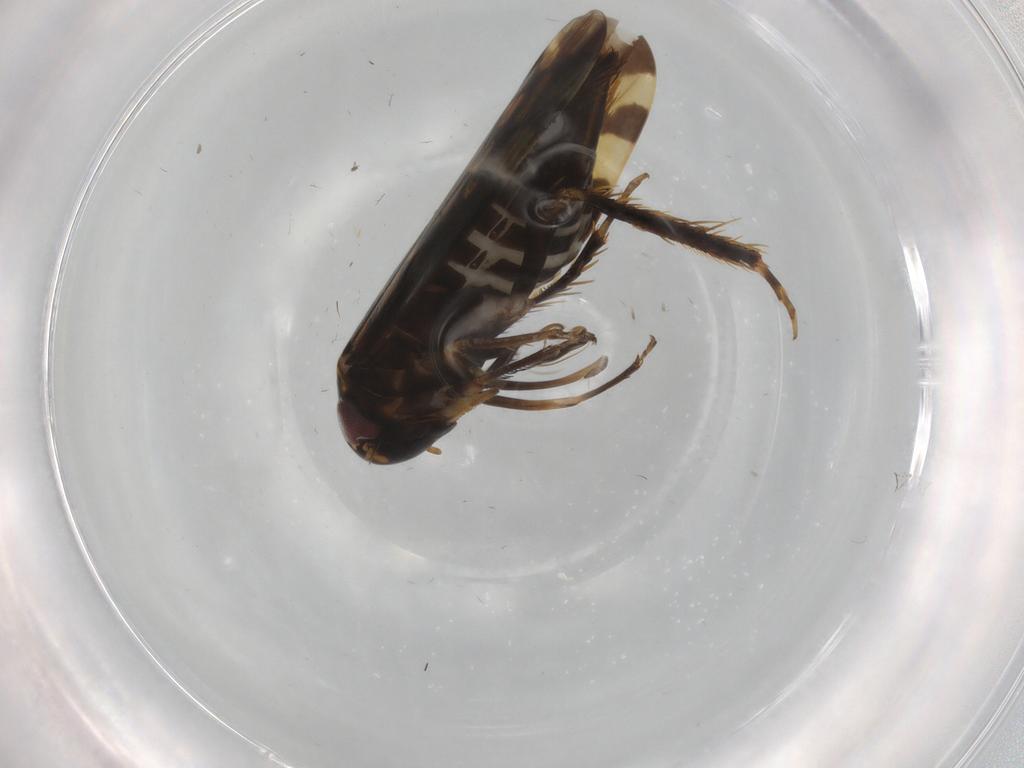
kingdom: Animalia
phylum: Arthropoda
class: Insecta
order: Hemiptera
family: Cicadellidae
